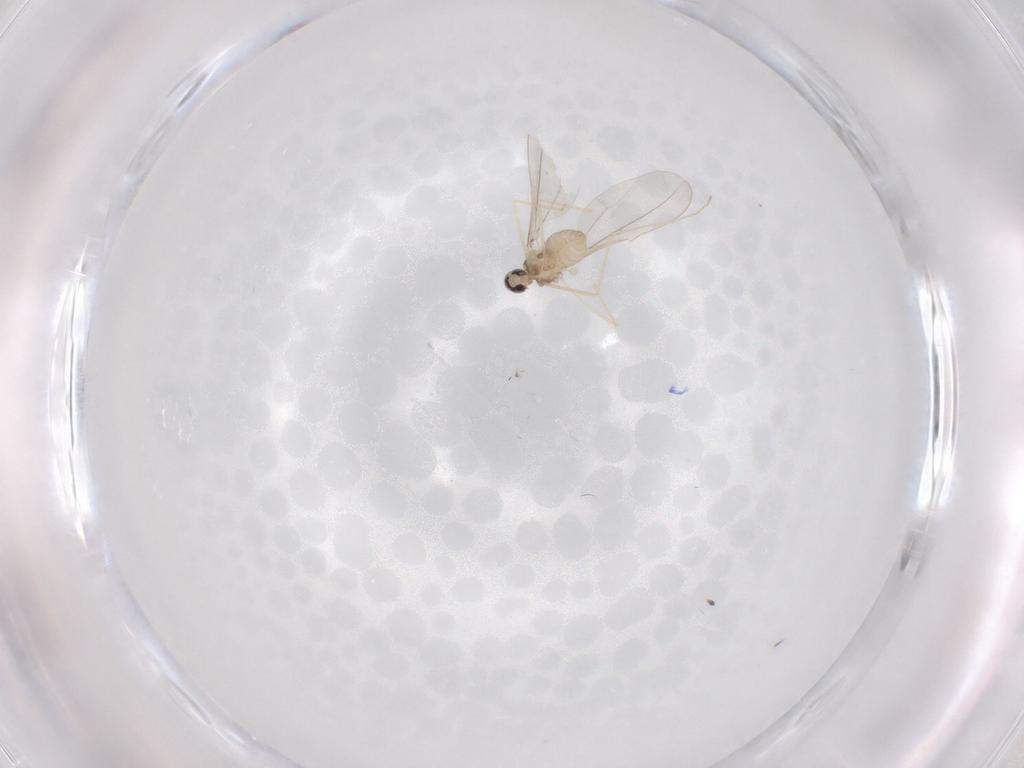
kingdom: Animalia
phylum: Arthropoda
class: Insecta
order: Diptera
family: Cecidomyiidae
